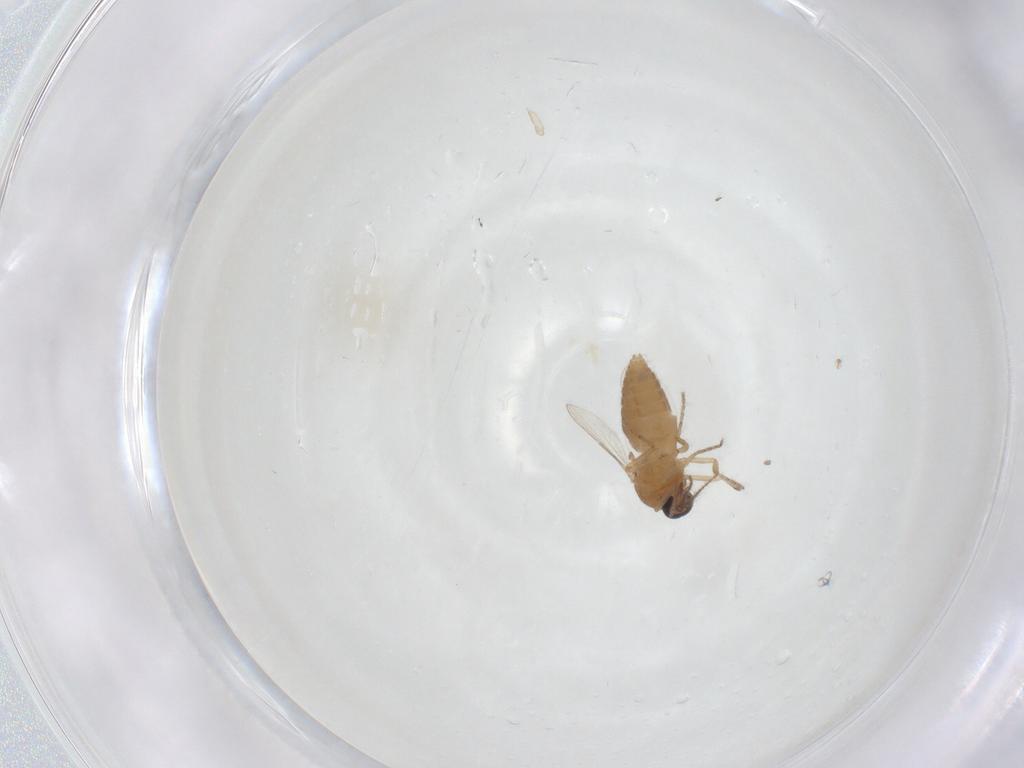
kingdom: Animalia
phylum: Arthropoda
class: Insecta
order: Diptera
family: Ceratopogonidae
